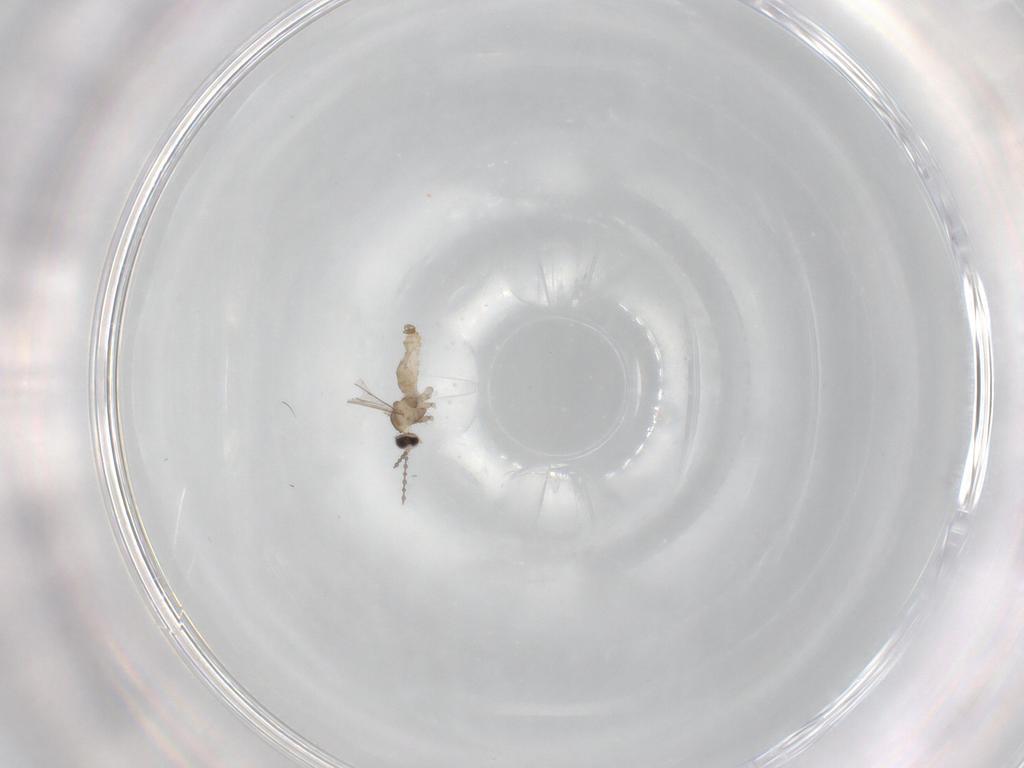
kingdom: Animalia
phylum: Arthropoda
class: Insecta
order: Diptera
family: Cecidomyiidae
